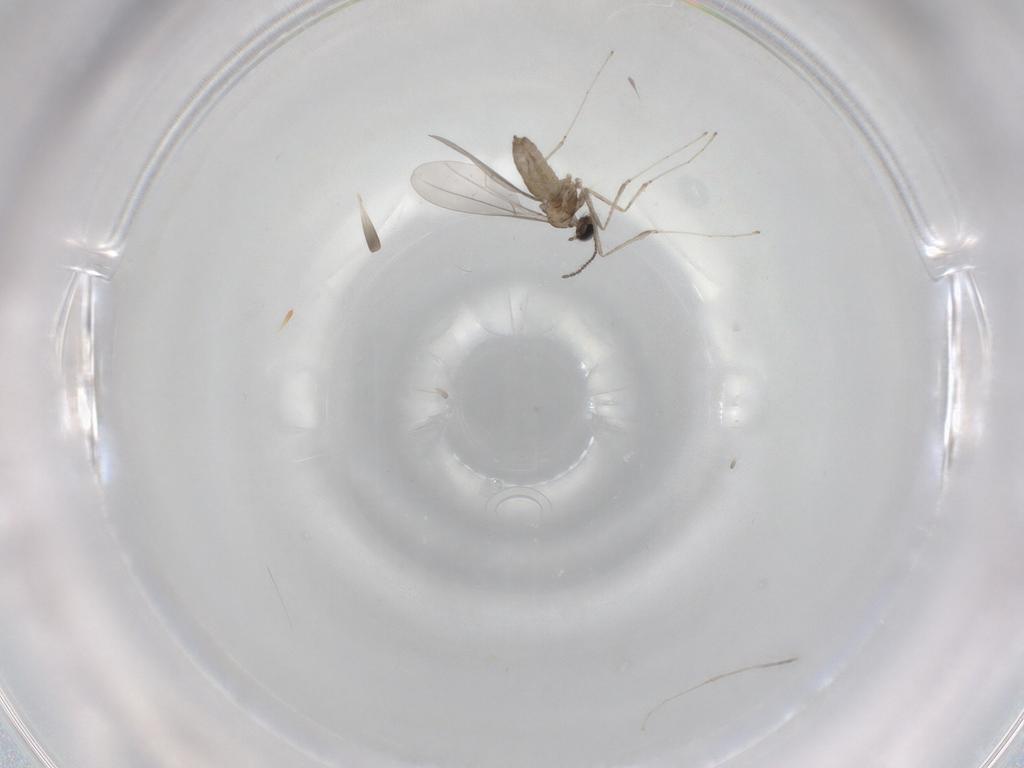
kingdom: Animalia
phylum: Arthropoda
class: Insecta
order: Diptera
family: Cecidomyiidae
